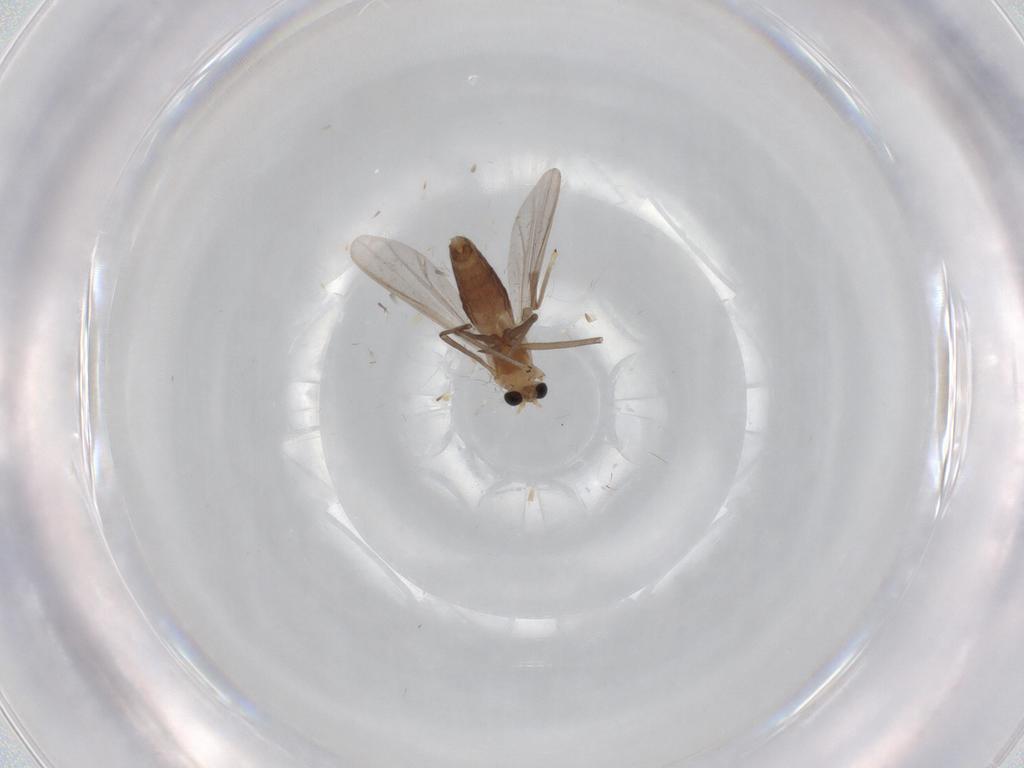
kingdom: Animalia
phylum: Arthropoda
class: Insecta
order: Diptera
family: Chironomidae
